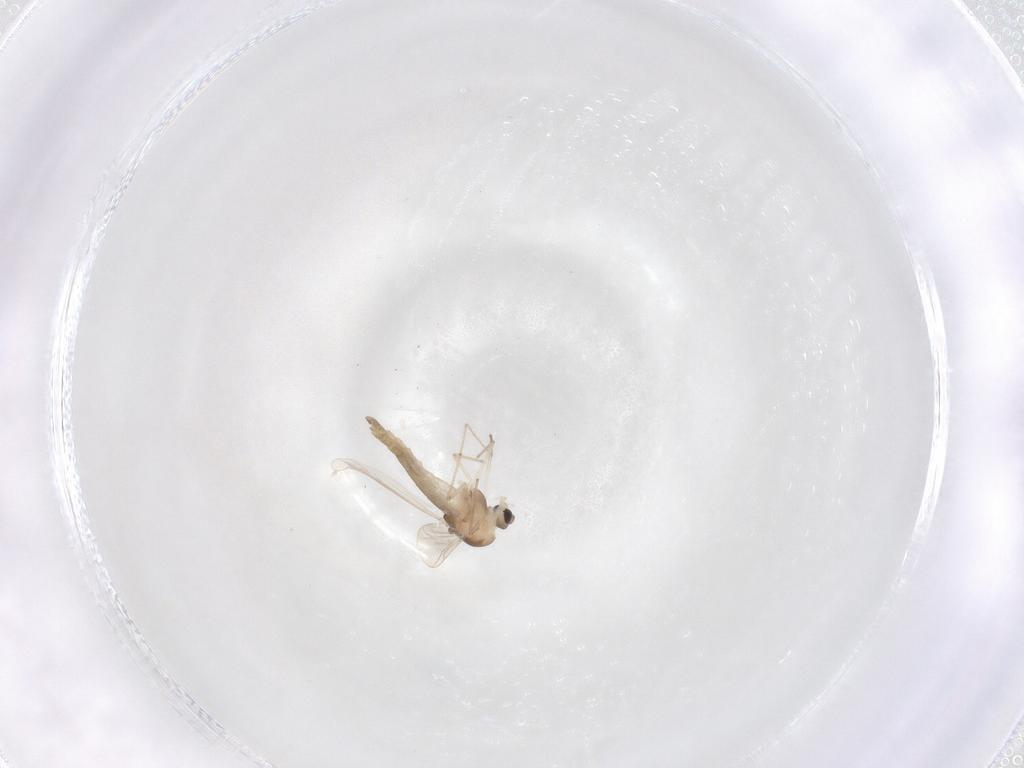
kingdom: Animalia
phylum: Arthropoda
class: Insecta
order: Diptera
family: Chironomidae
